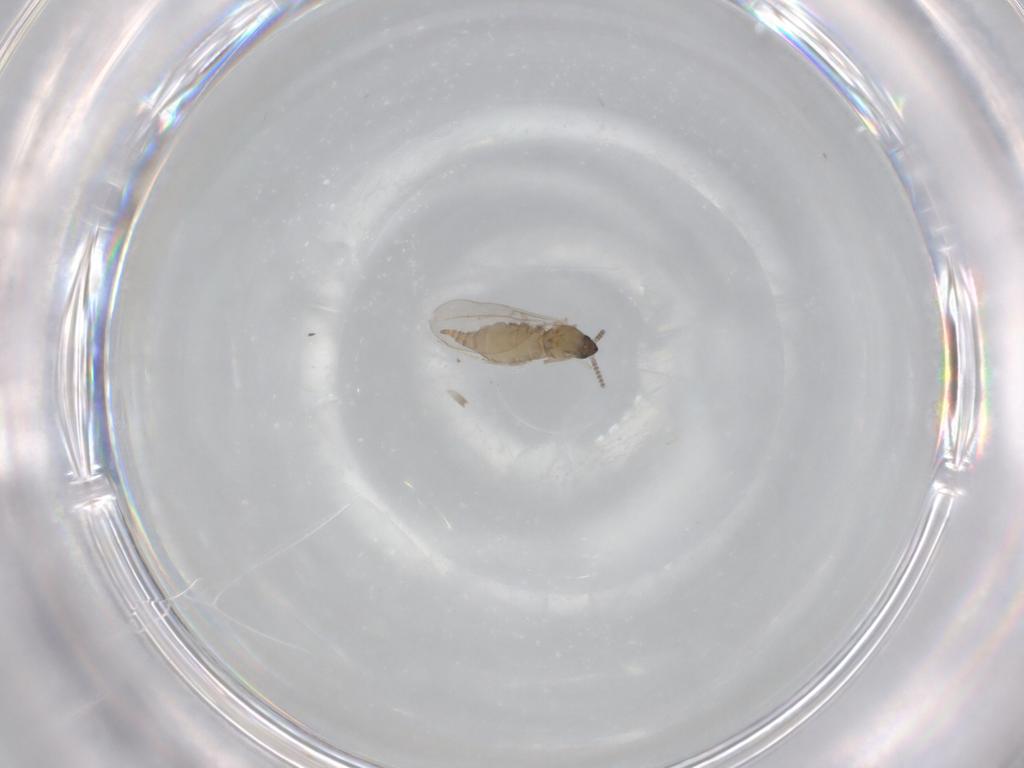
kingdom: Animalia
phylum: Arthropoda
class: Insecta
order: Diptera
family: Cecidomyiidae
